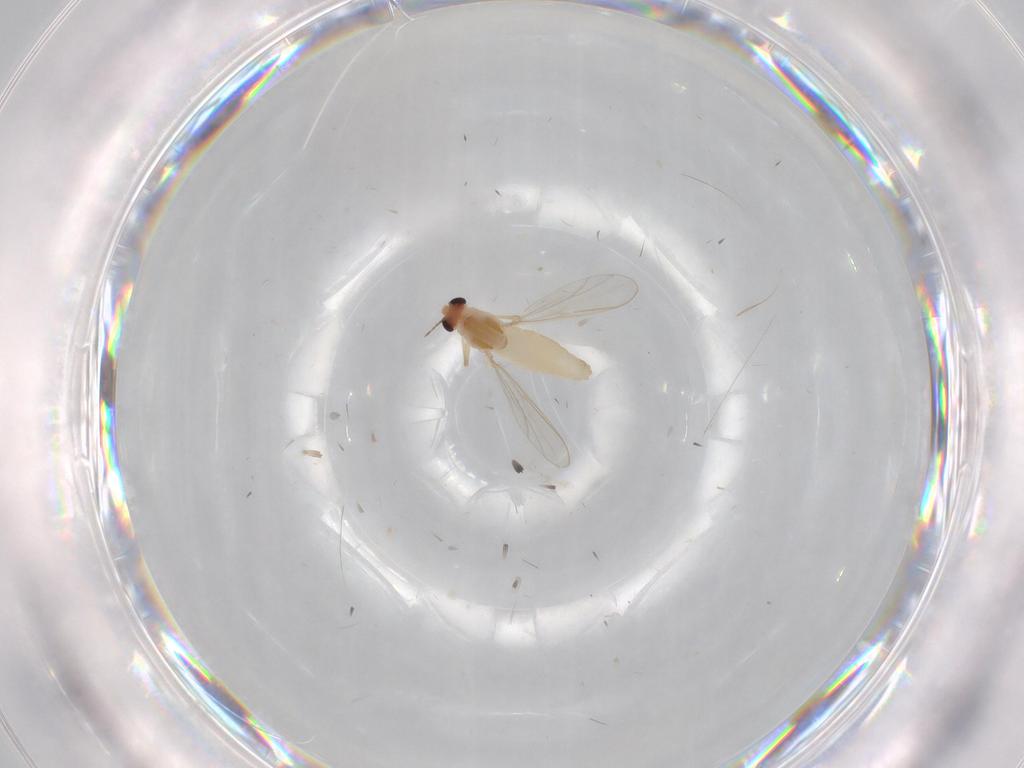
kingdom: Animalia
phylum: Arthropoda
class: Insecta
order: Diptera
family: Chironomidae
